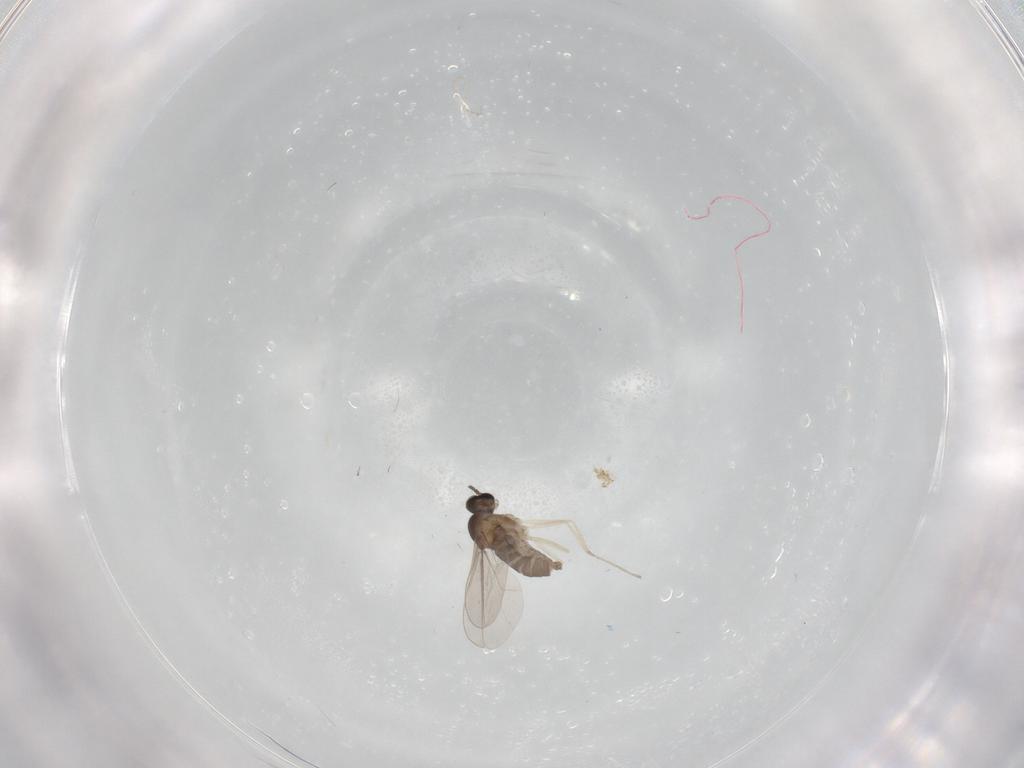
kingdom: Animalia
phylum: Arthropoda
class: Insecta
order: Diptera
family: Cecidomyiidae
